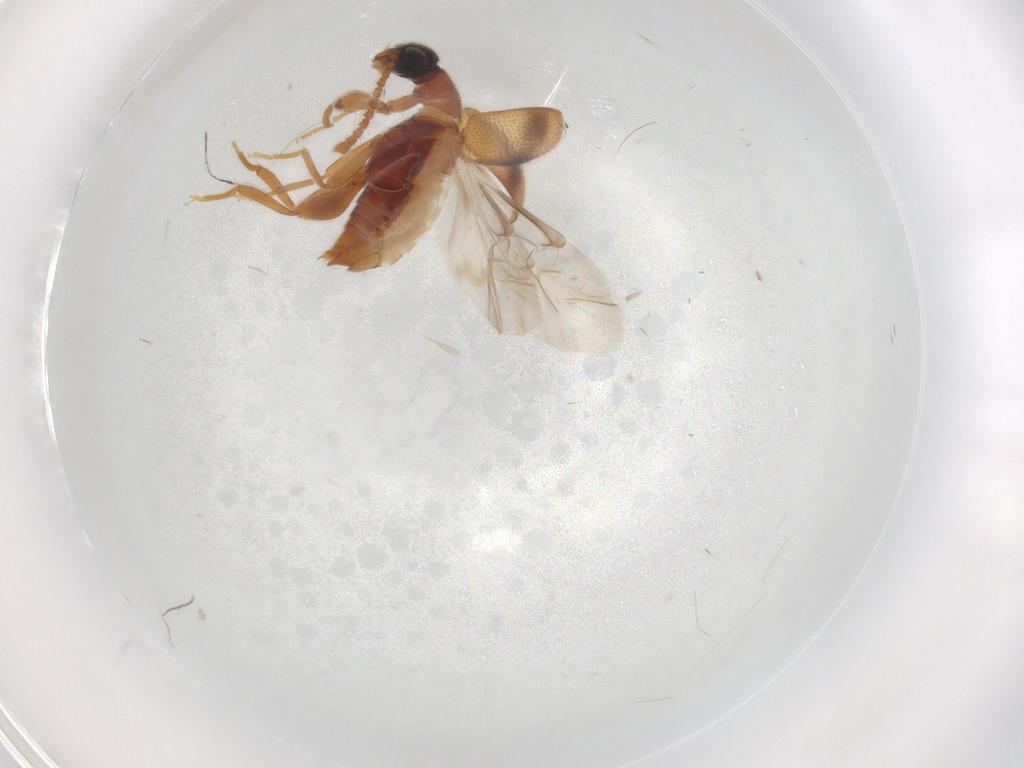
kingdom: Animalia
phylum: Arthropoda
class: Insecta
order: Coleoptera
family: Aderidae
